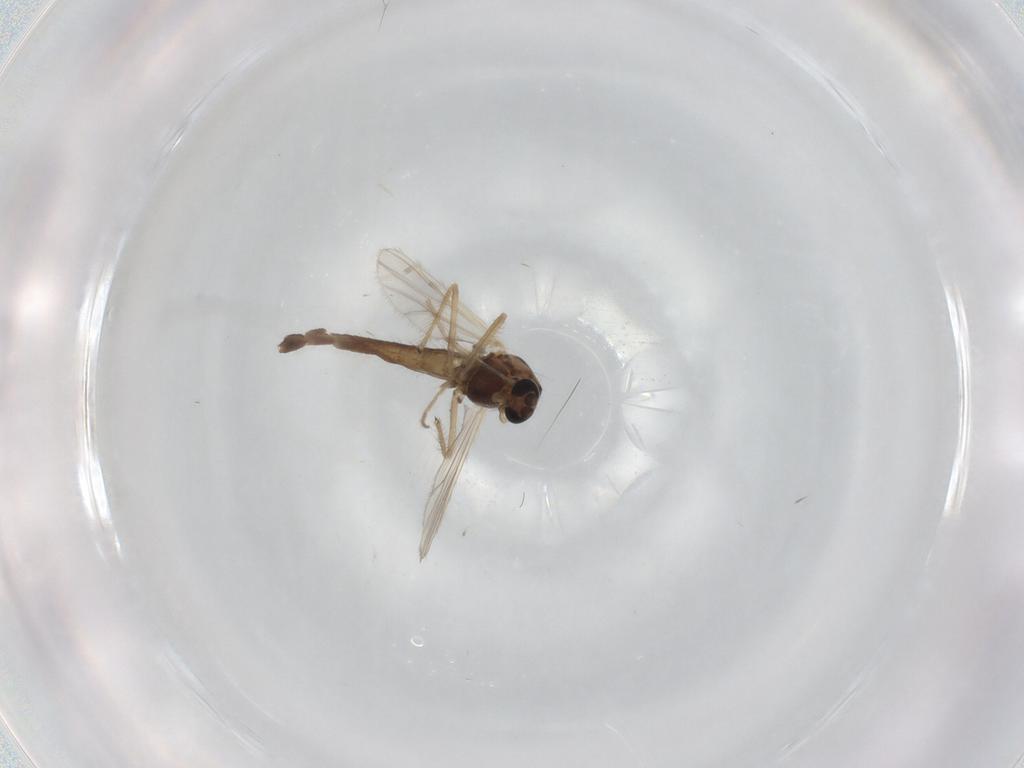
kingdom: Animalia
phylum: Arthropoda
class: Insecta
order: Diptera
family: Chironomidae
